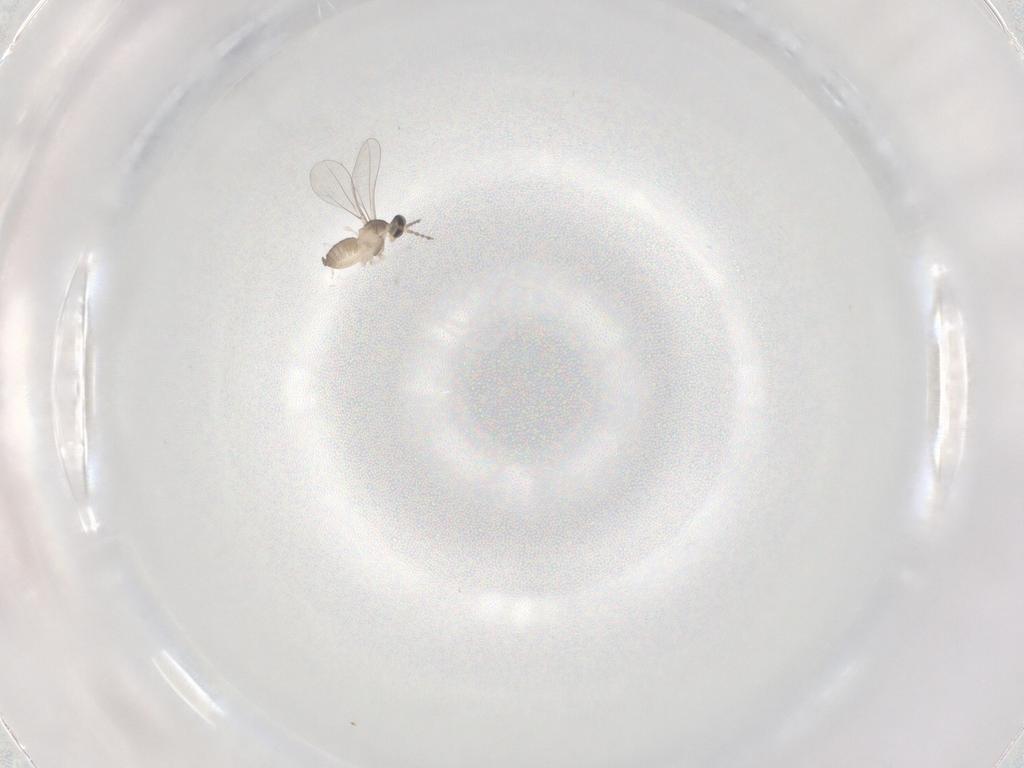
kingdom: Animalia
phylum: Arthropoda
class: Insecta
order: Diptera
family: Cecidomyiidae
